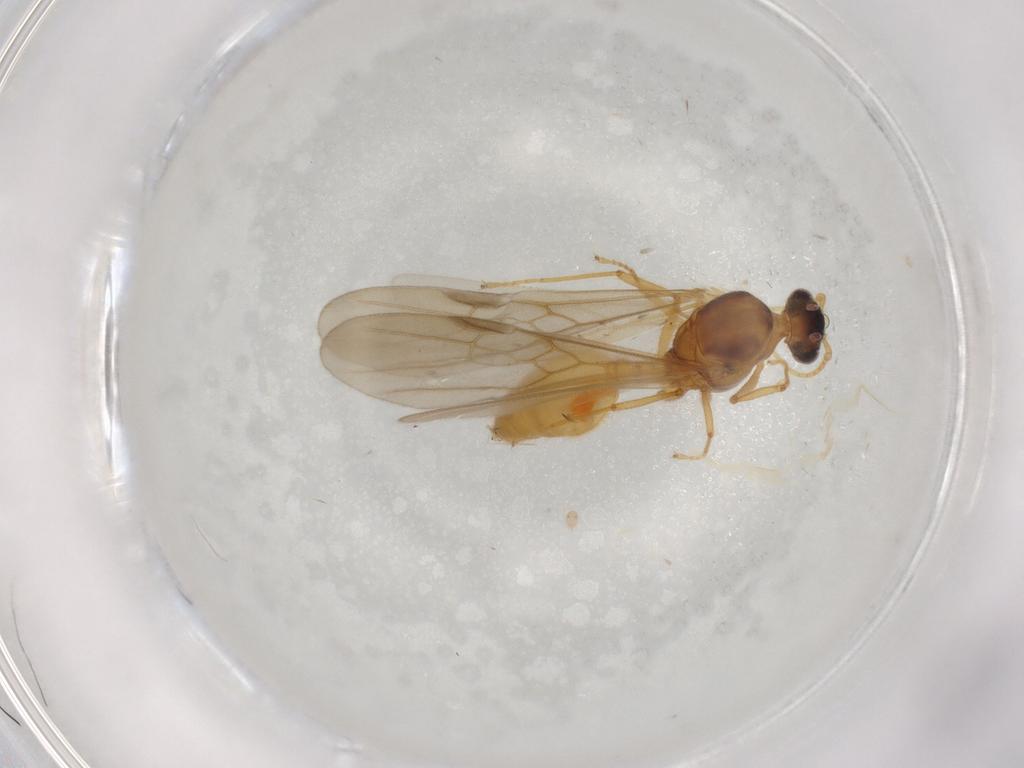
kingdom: Animalia
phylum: Arthropoda
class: Insecta
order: Hymenoptera
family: Formicidae
